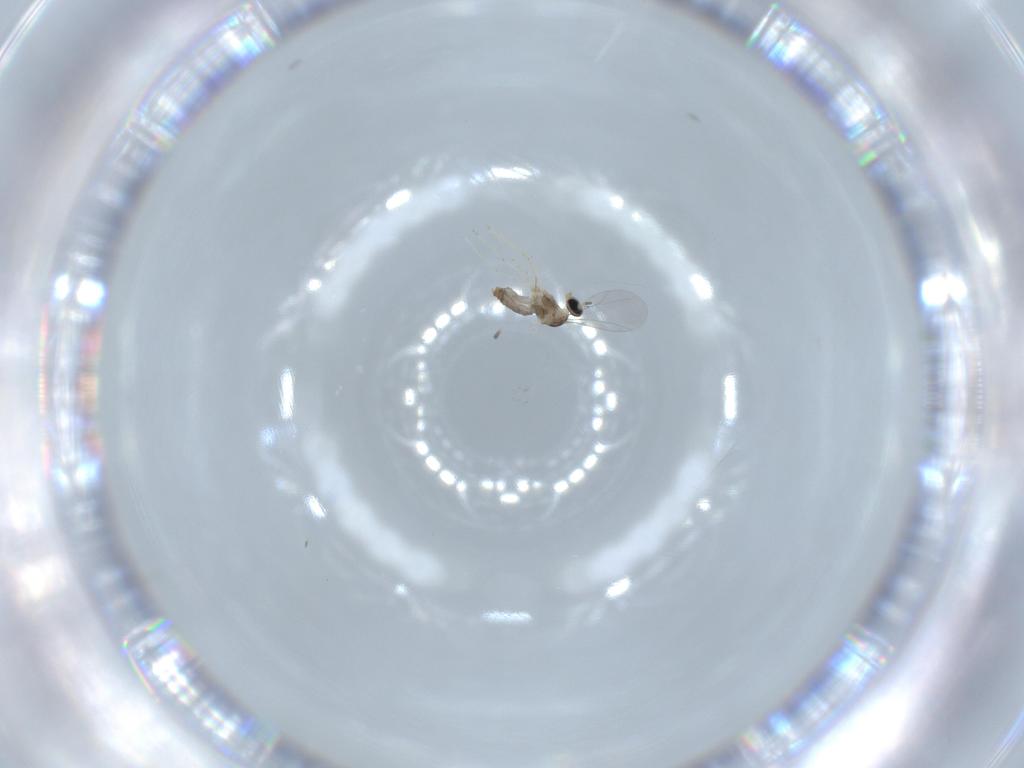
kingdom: Animalia
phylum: Arthropoda
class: Insecta
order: Diptera
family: Cecidomyiidae
